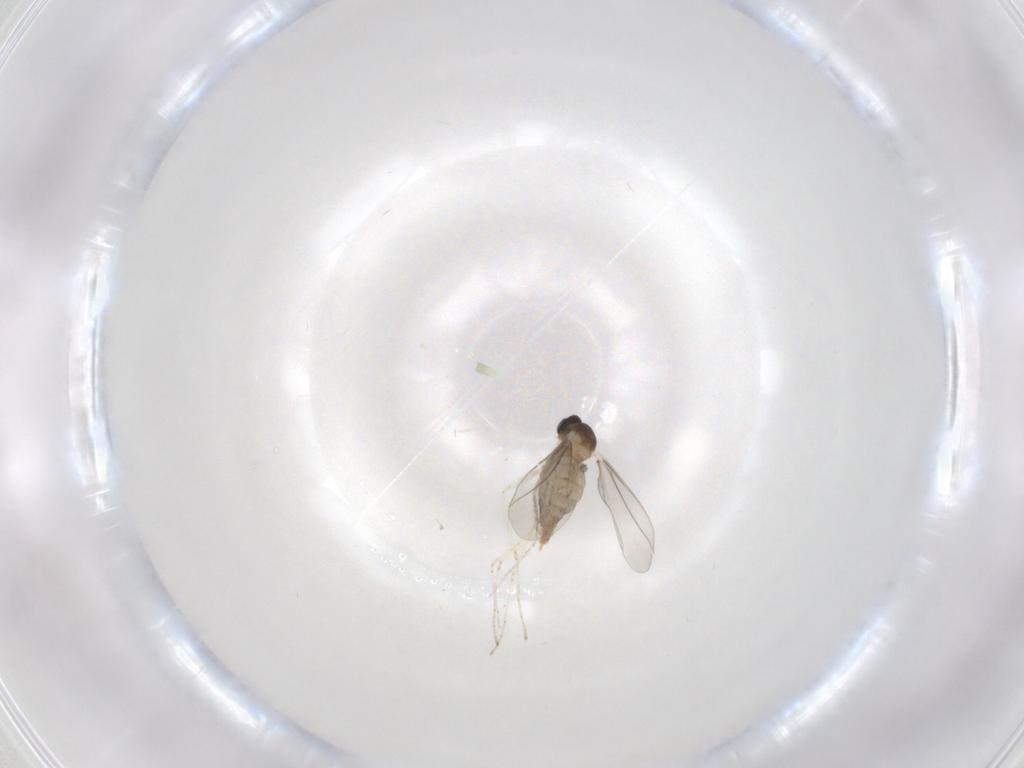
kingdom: Animalia
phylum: Arthropoda
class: Insecta
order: Diptera
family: Cecidomyiidae
